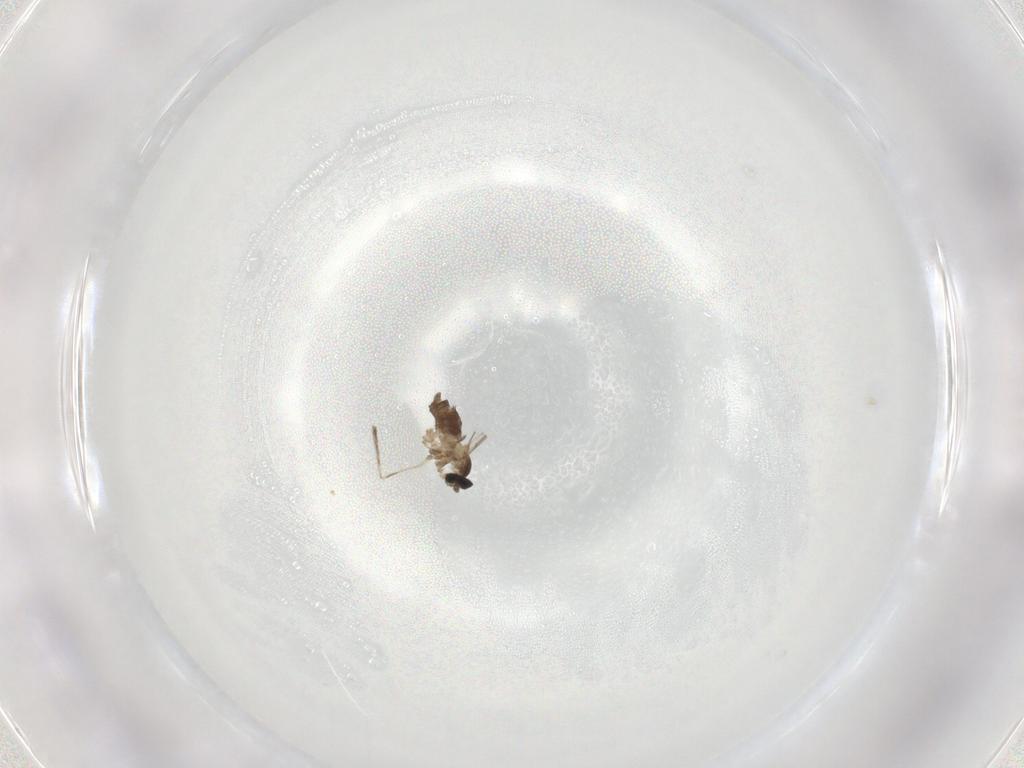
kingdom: Animalia
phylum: Arthropoda
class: Insecta
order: Diptera
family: Cecidomyiidae
